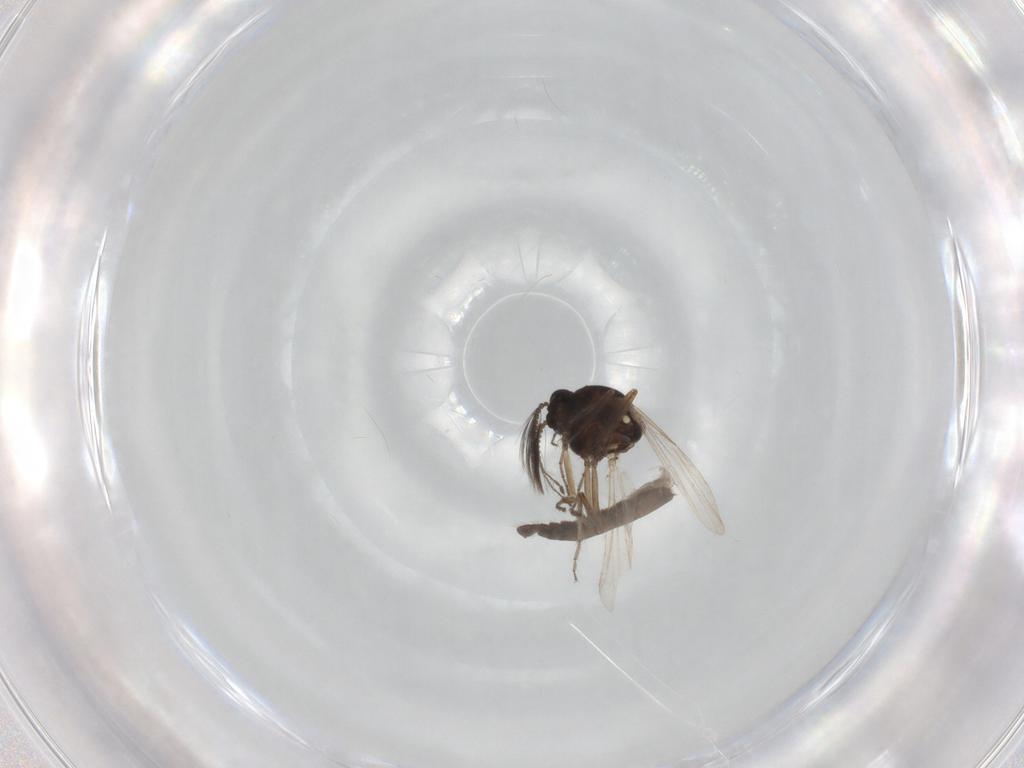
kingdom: Animalia
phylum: Arthropoda
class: Insecta
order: Diptera
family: Ceratopogonidae
